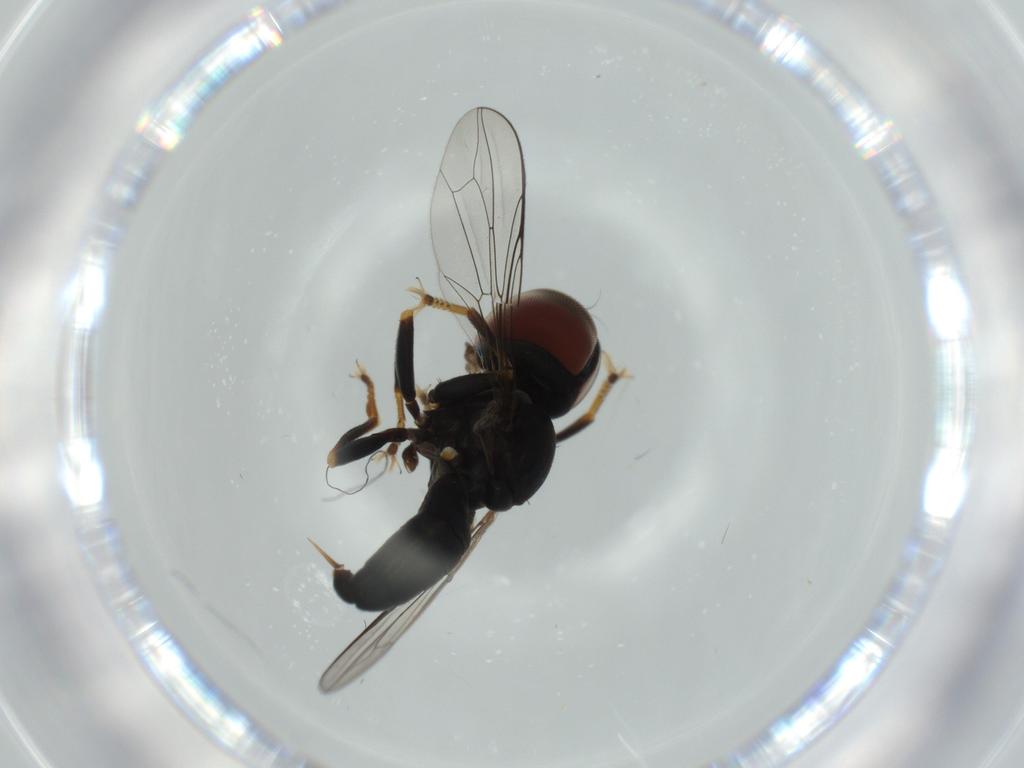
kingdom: Animalia
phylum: Arthropoda
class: Insecta
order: Diptera
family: Pipunculidae
